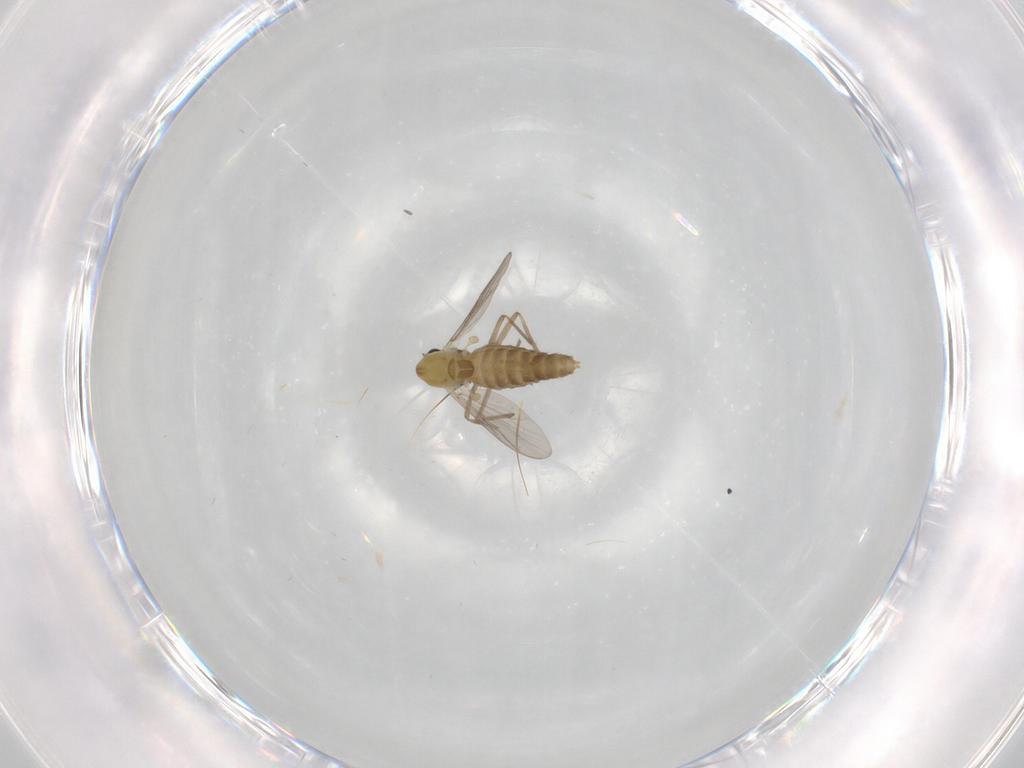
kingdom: Animalia
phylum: Arthropoda
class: Insecta
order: Diptera
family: Chironomidae
